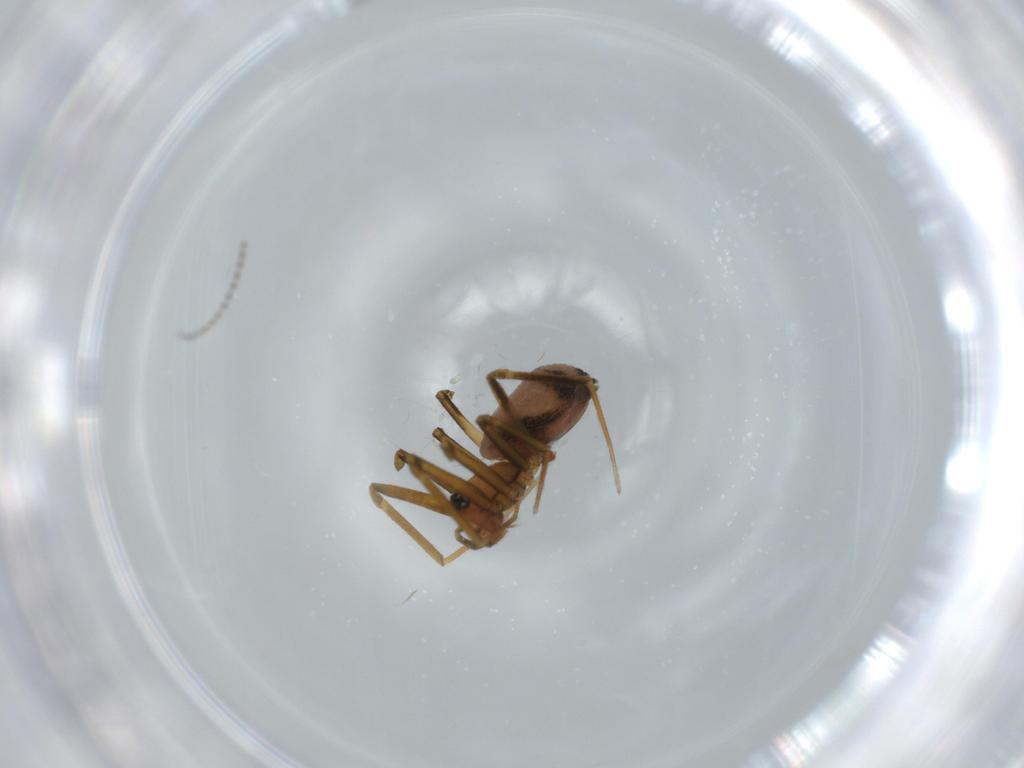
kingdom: Animalia
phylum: Arthropoda
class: Arachnida
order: Araneae
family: Linyphiidae
